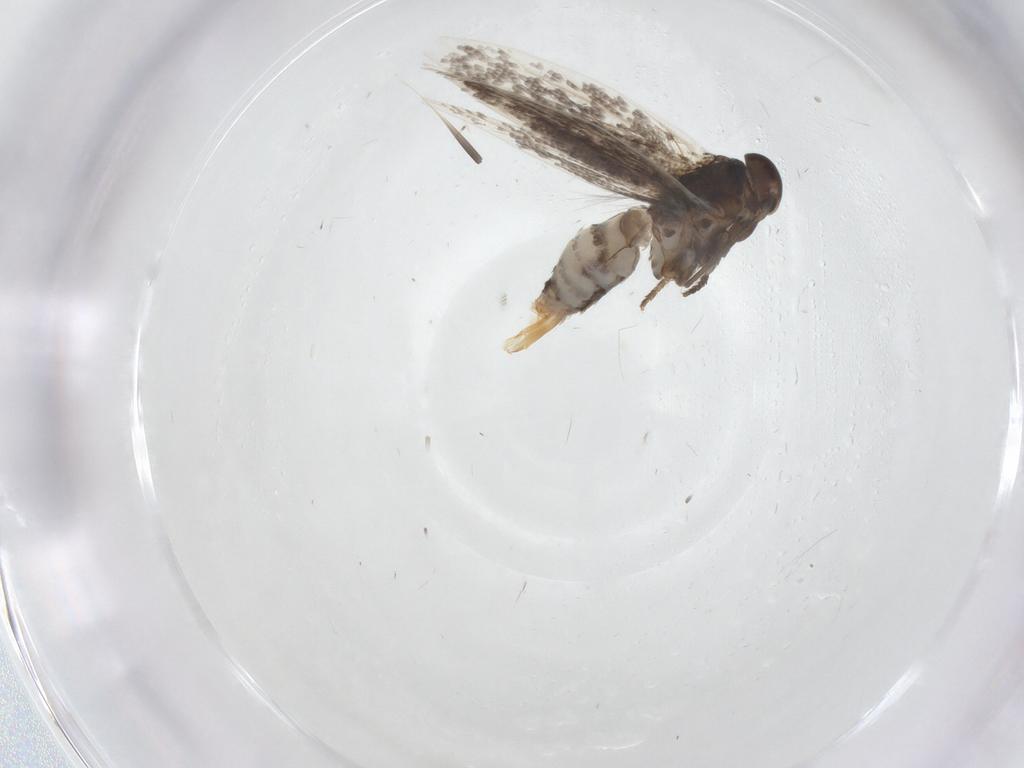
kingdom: Animalia
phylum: Arthropoda
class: Insecta
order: Lepidoptera
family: Elachistidae
